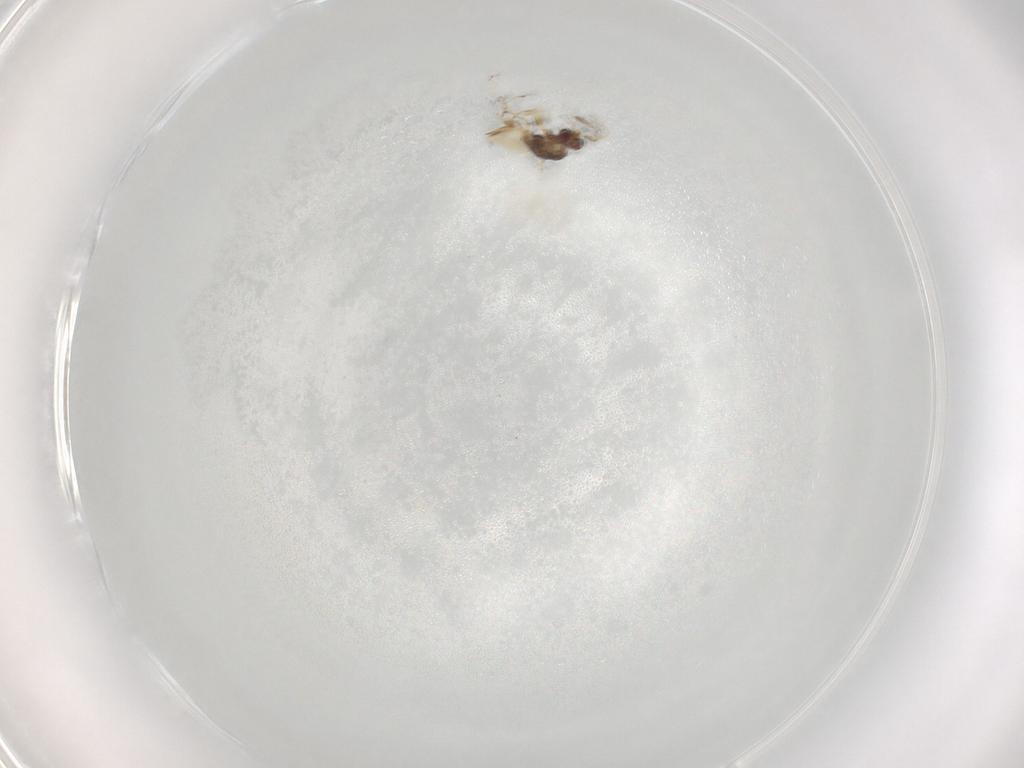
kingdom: Animalia
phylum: Arthropoda
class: Insecta
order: Hymenoptera
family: Mymaridae
